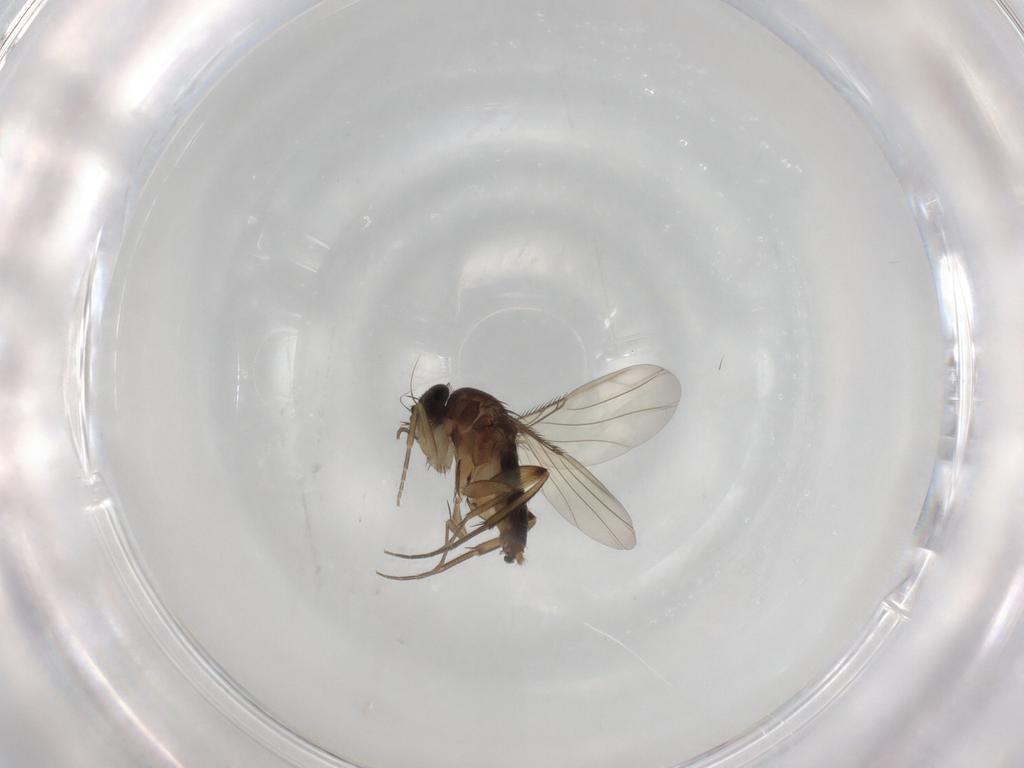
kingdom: Animalia
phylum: Arthropoda
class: Insecta
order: Diptera
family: Phoridae
